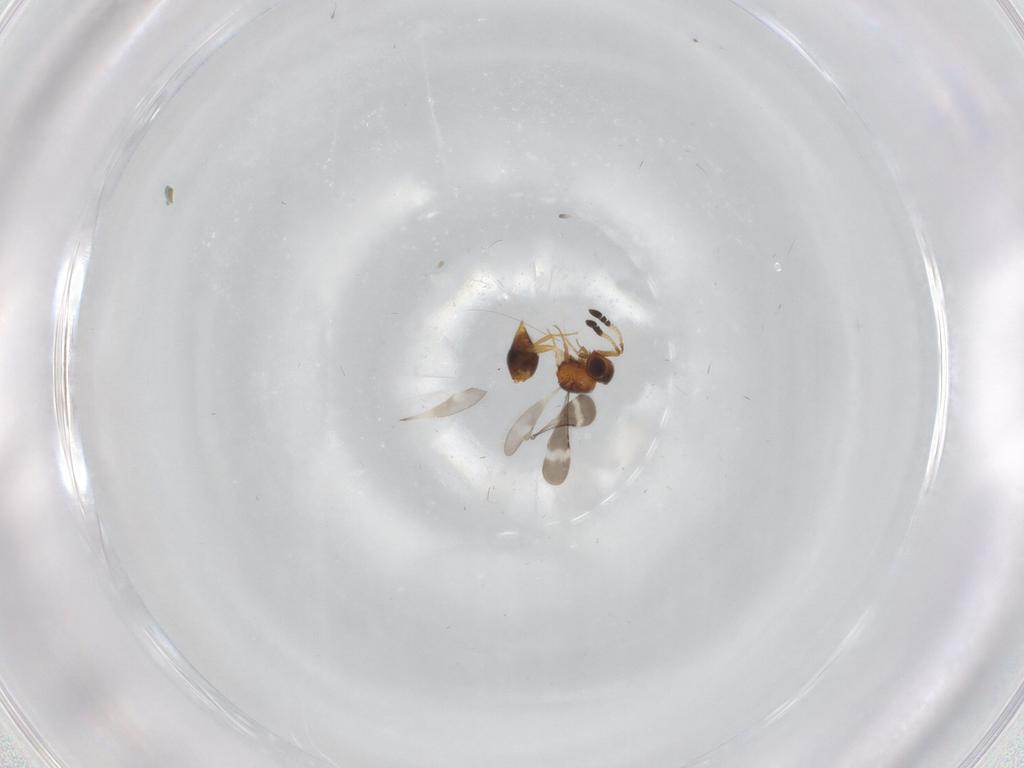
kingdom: Animalia
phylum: Arthropoda
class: Insecta
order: Hymenoptera
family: Ceraphronidae
